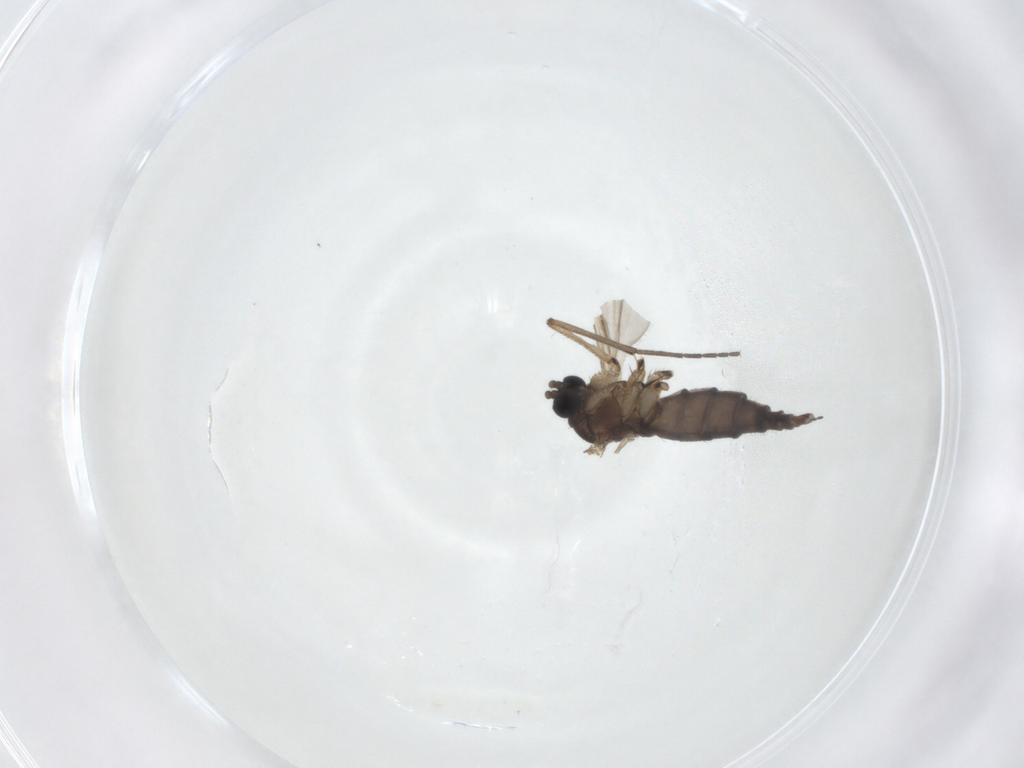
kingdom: Animalia
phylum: Arthropoda
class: Insecta
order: Diptera
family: Sciaridae
